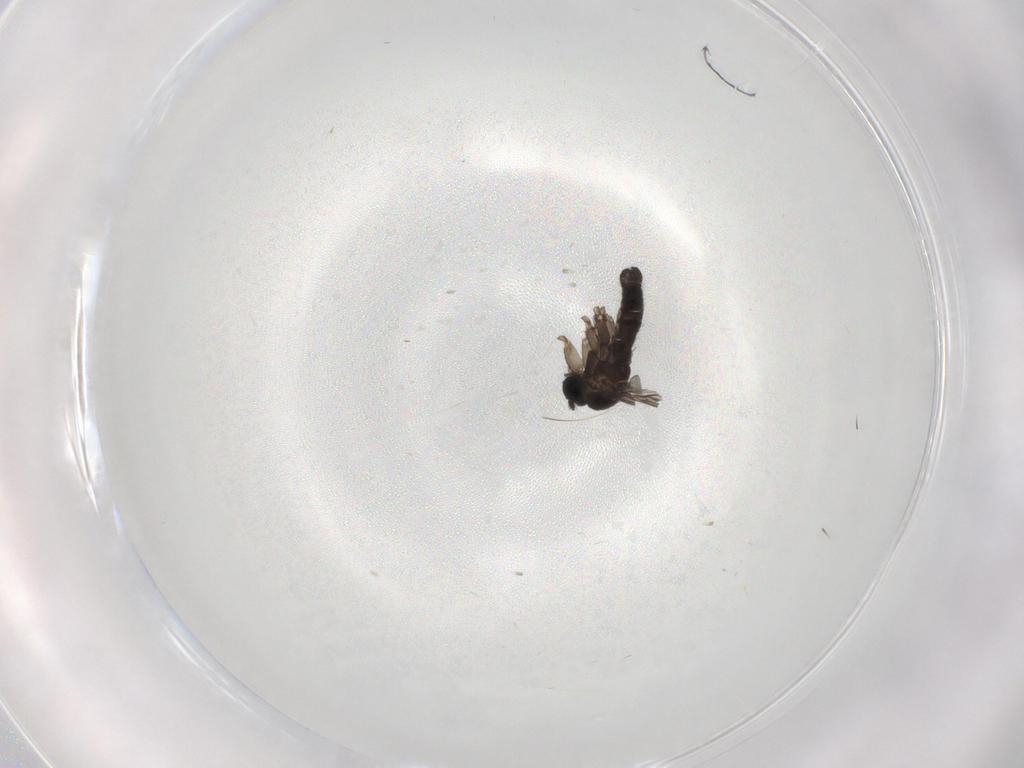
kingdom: Animalia
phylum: Arthropoda
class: Insecta
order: Diptera
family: Sciaridae
